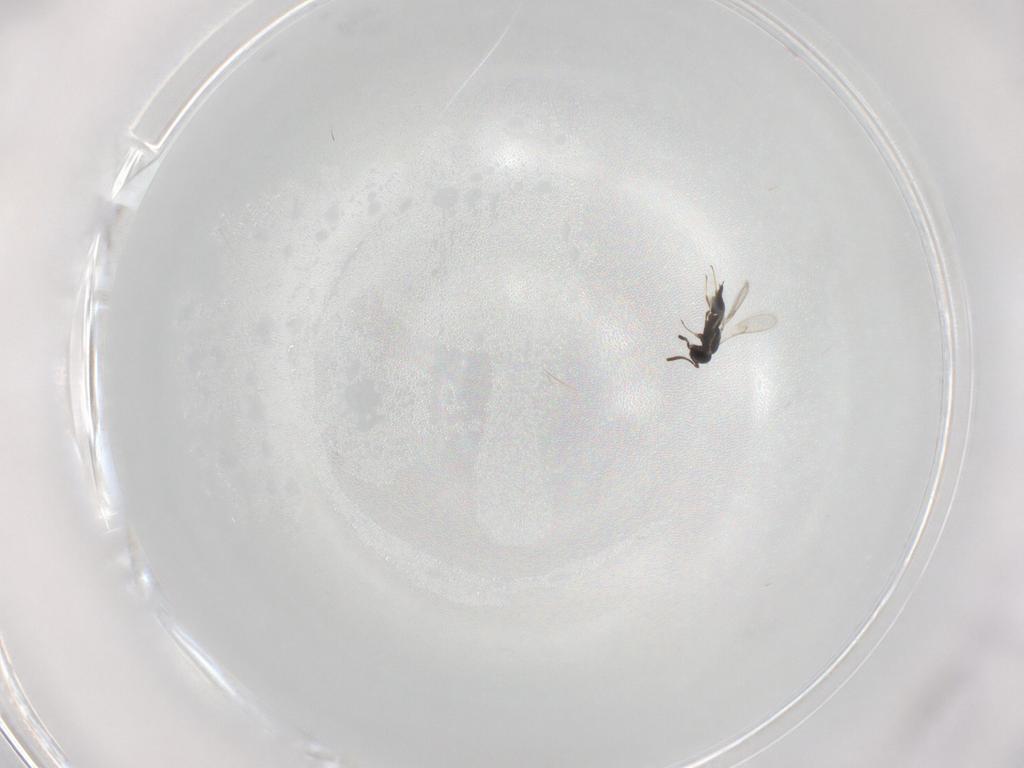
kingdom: Animalia
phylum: Arthropoda
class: Insecta
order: Hymenoptera
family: Scelionidae
